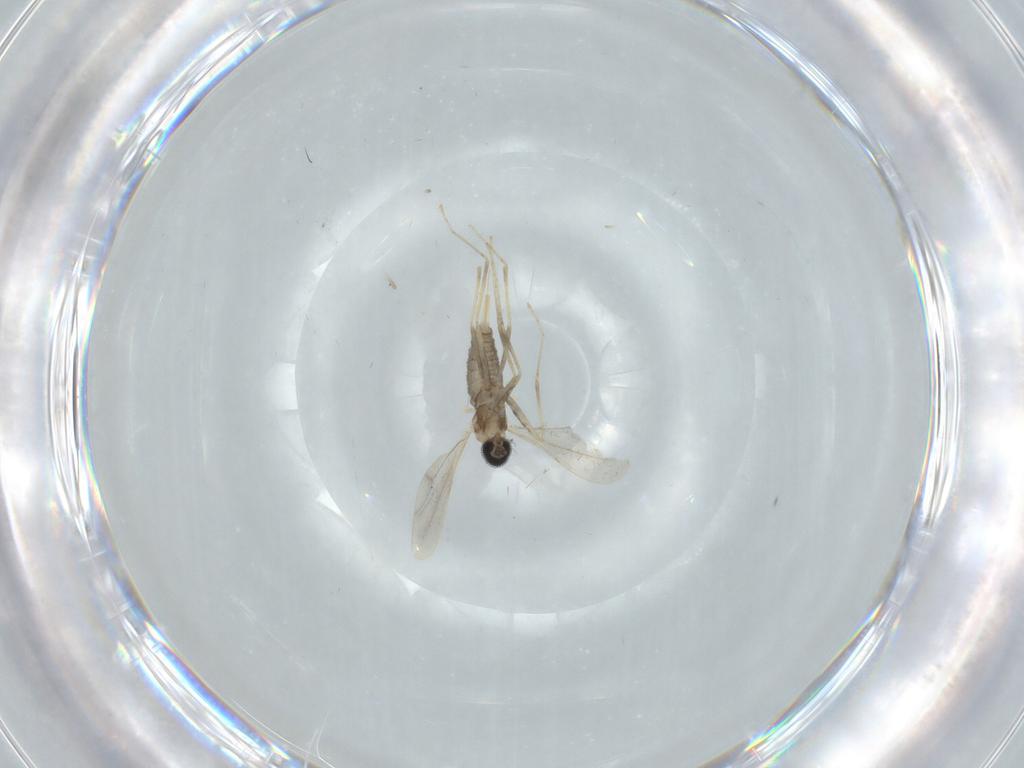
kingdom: Animalia
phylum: Arthropoda
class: Insecta
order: Diptera
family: Cecidomyiidae
